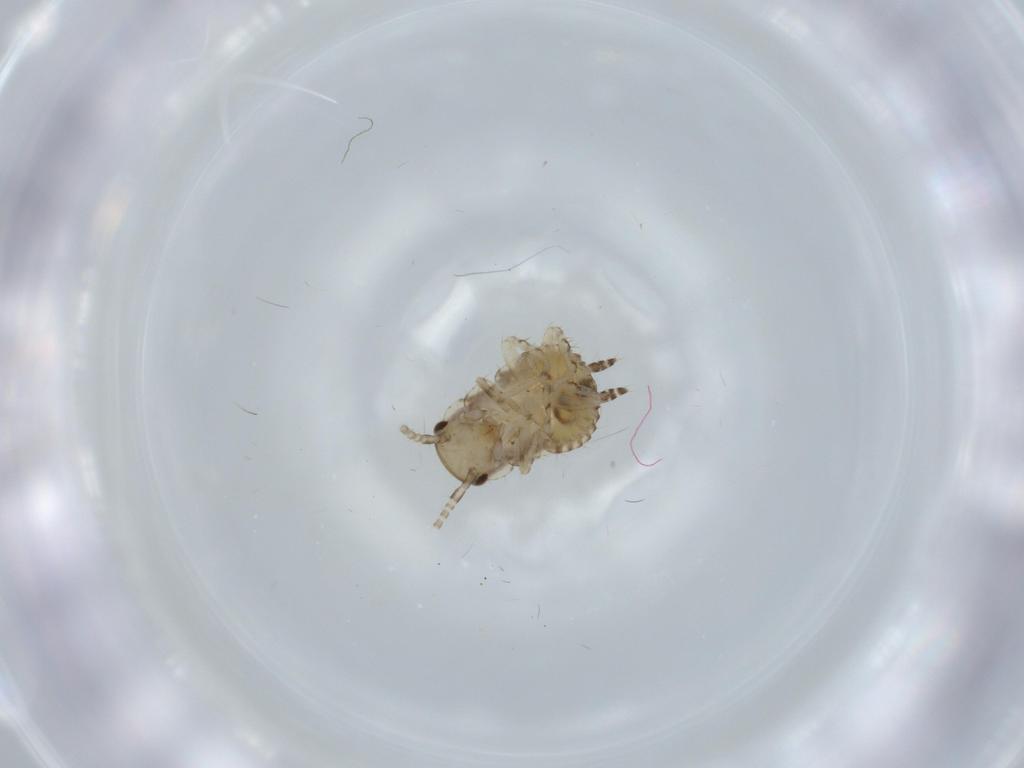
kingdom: Animalia
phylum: Arthropoda
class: Insecta
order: Blattodea
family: Ectobiidae
